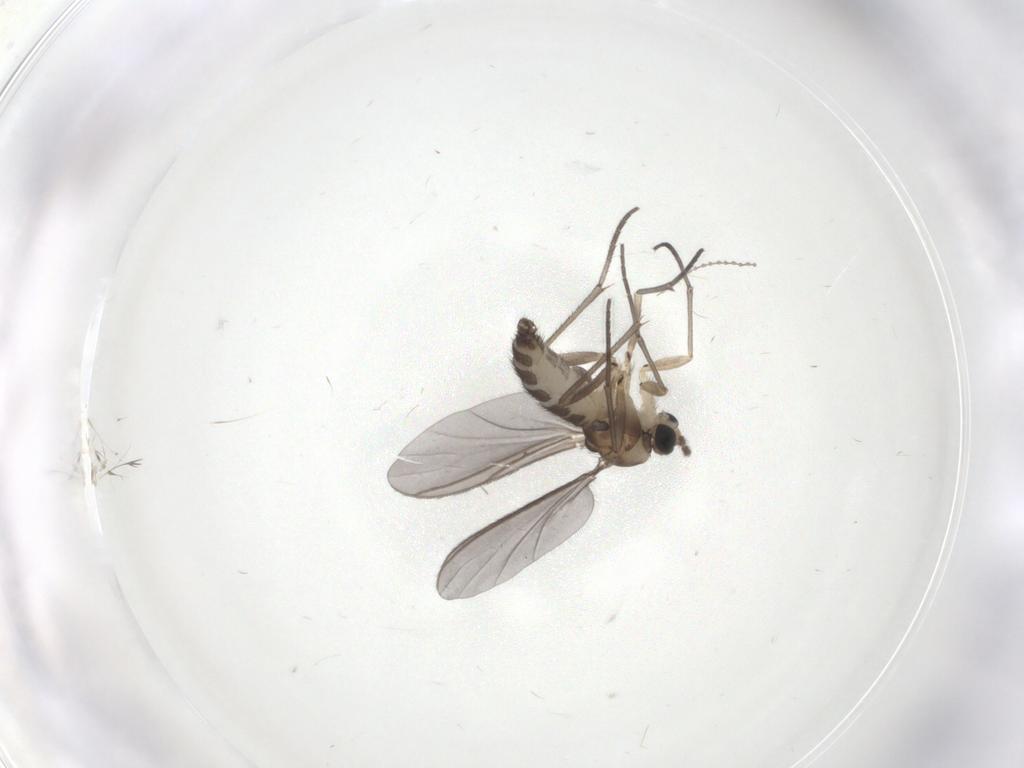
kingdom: Animalia
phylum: Arthropoda
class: Insecta
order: Diptera
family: Sciaridae
